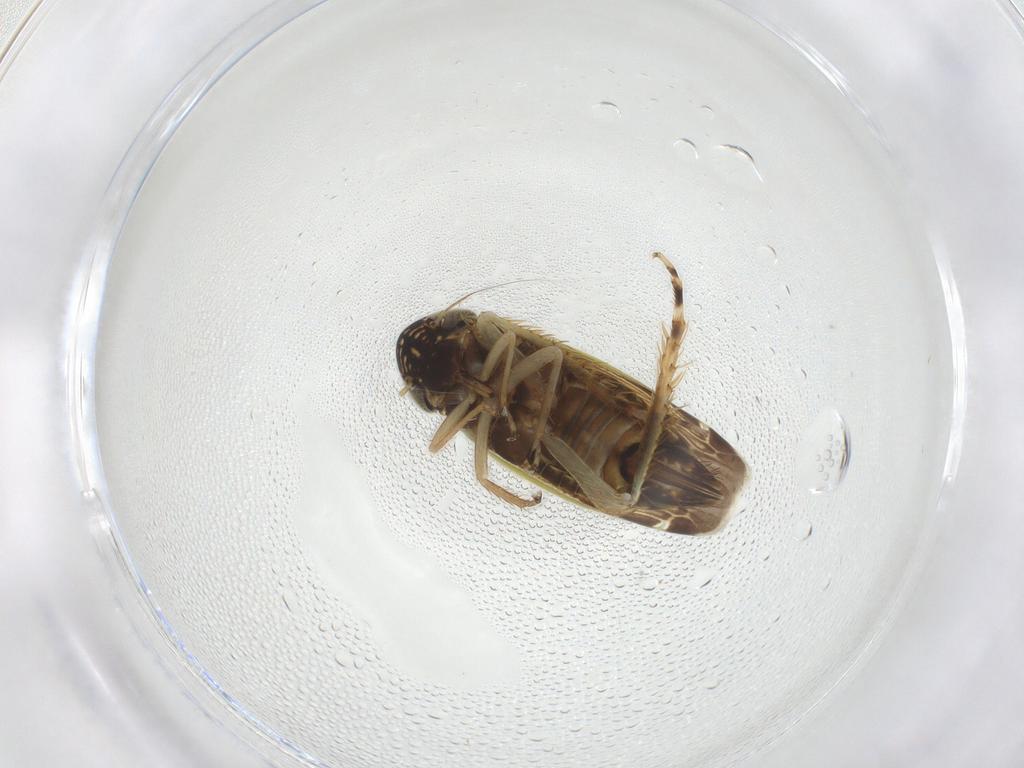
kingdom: Animalia
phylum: Arthropoda
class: Insecta
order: Hemiptera
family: Cicadellidae
